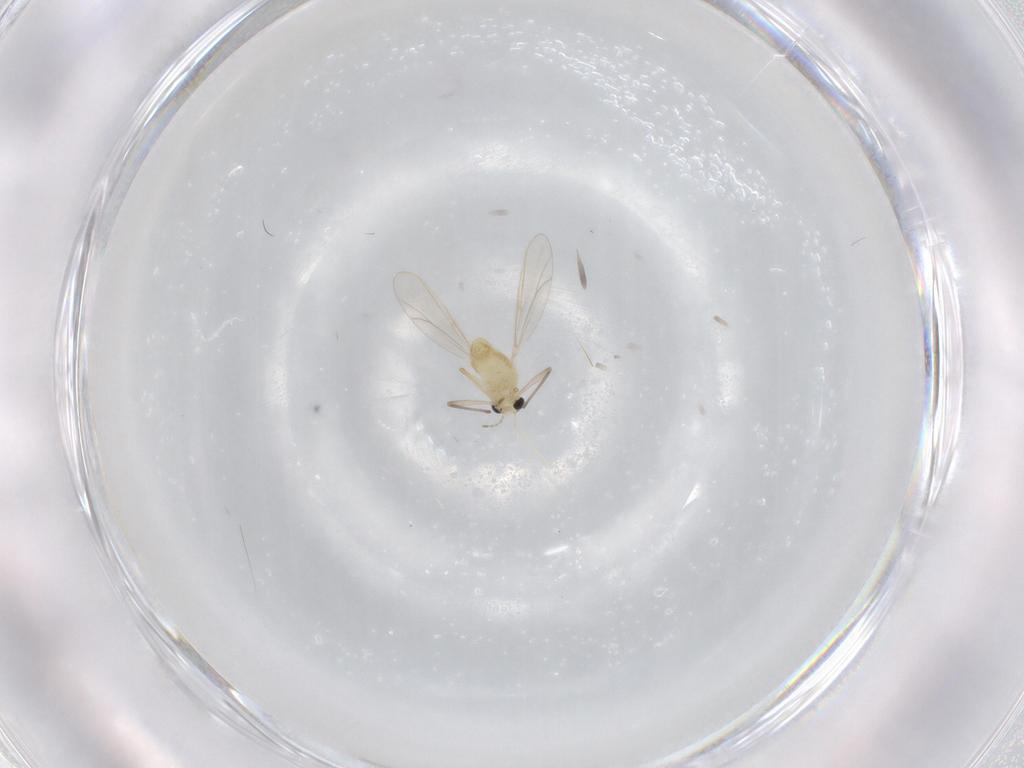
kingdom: Animalia
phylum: Arthropoda
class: Insecta
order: Diptera
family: Chironomidae
